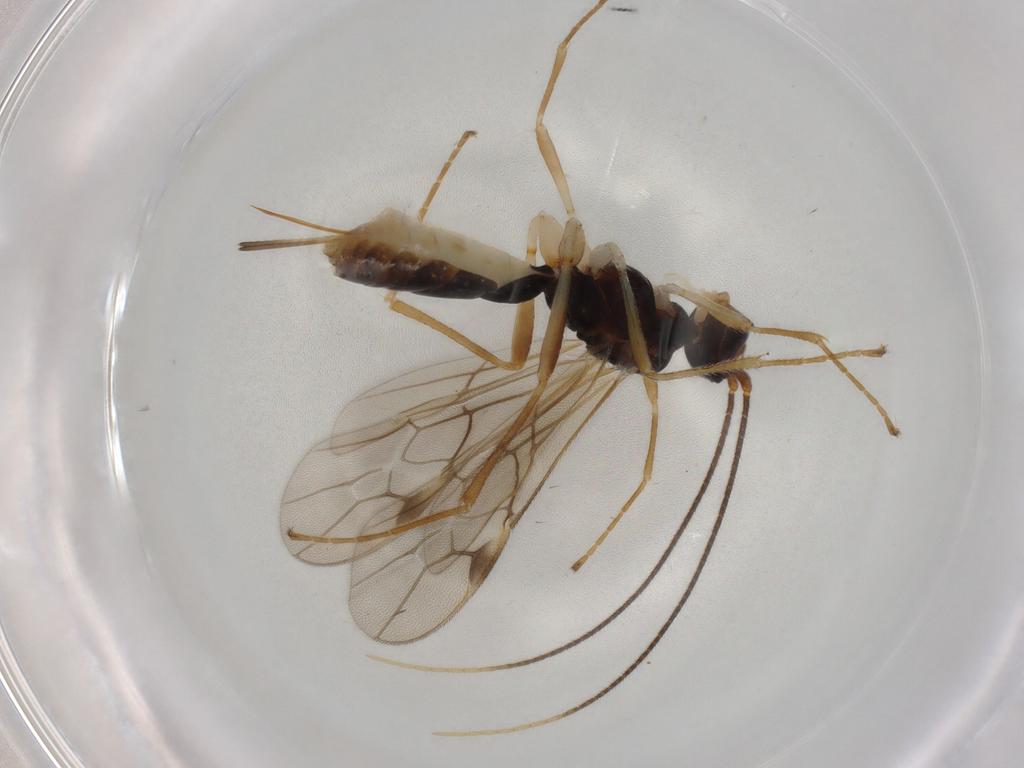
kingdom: Animalia
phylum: Arthropoda
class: Insecta
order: Hymenoptera
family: Formicidae
